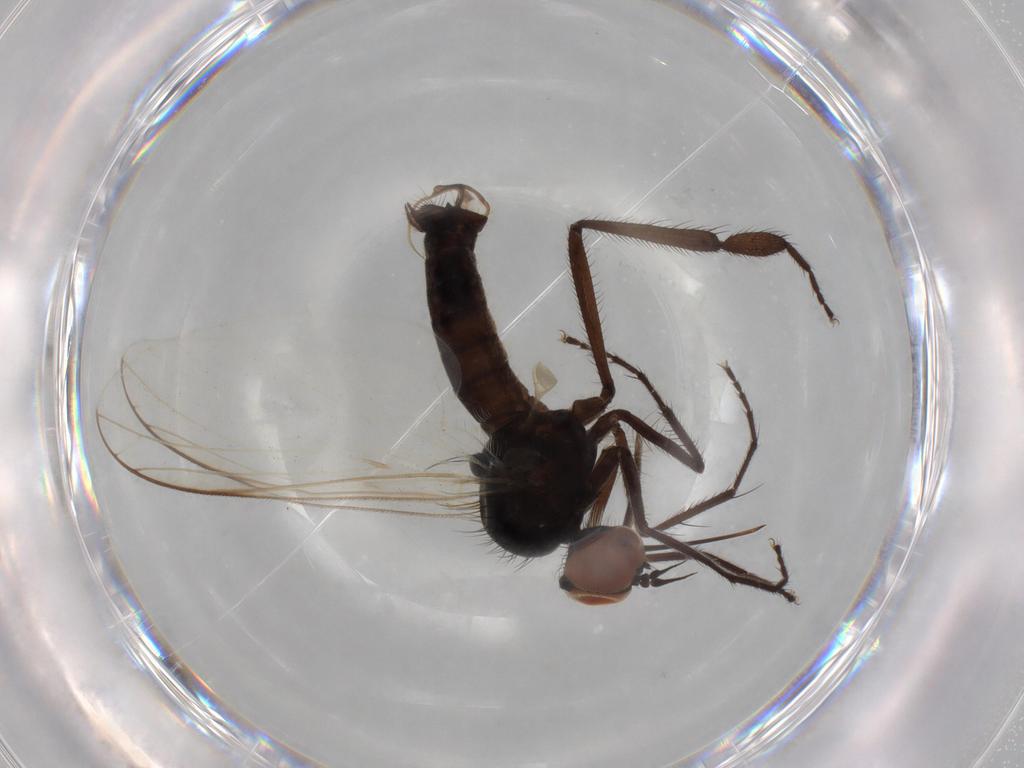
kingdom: Animalia
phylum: Arthropoda
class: Insecta
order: Diptera
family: Empididae
